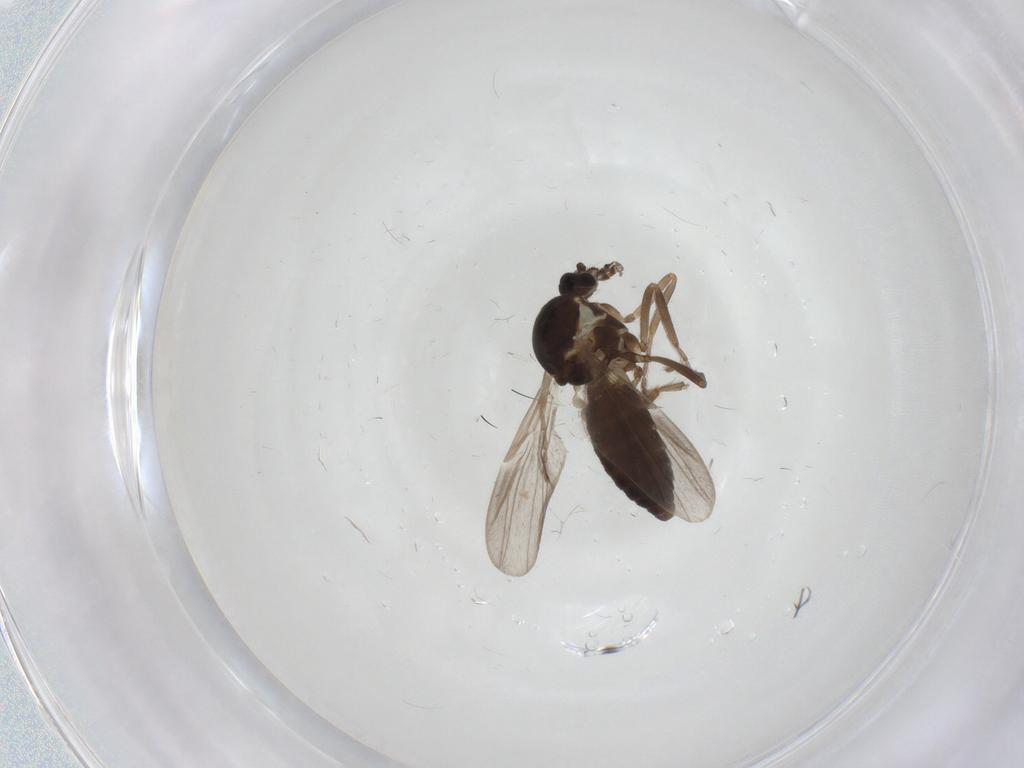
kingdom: Animalia
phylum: Arthropoda
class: Insecta
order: Diptera
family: Ceratopogonidae
